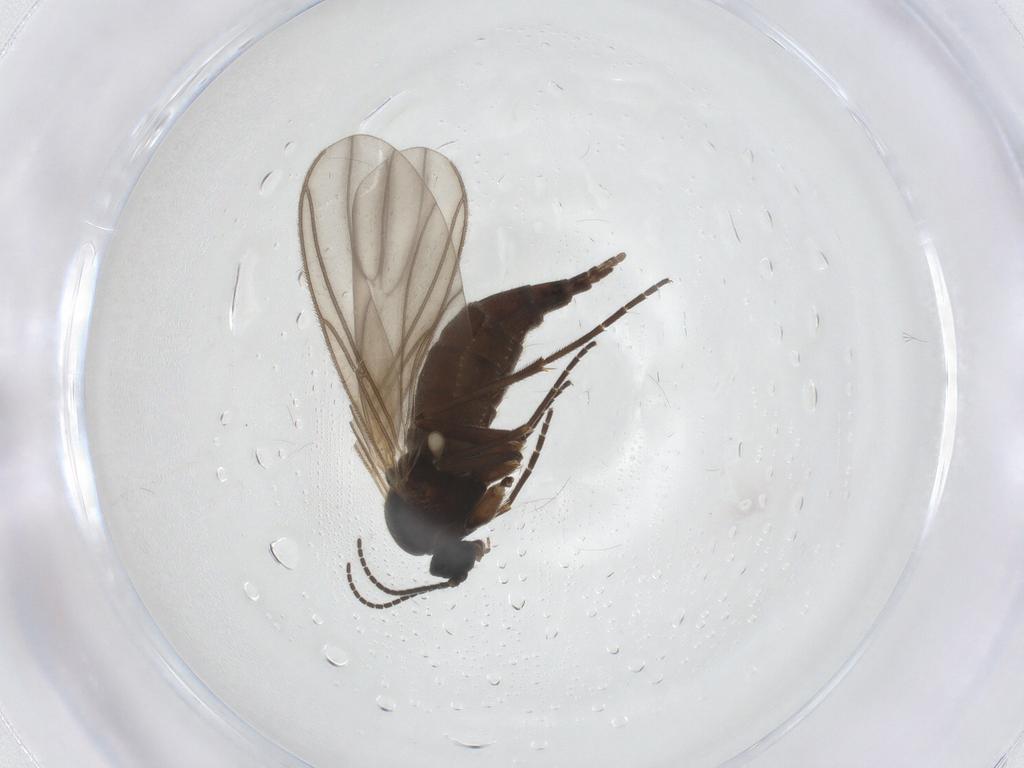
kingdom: Animalia
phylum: Arthropoda
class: Insecta
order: Diptera
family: Sciaridae
